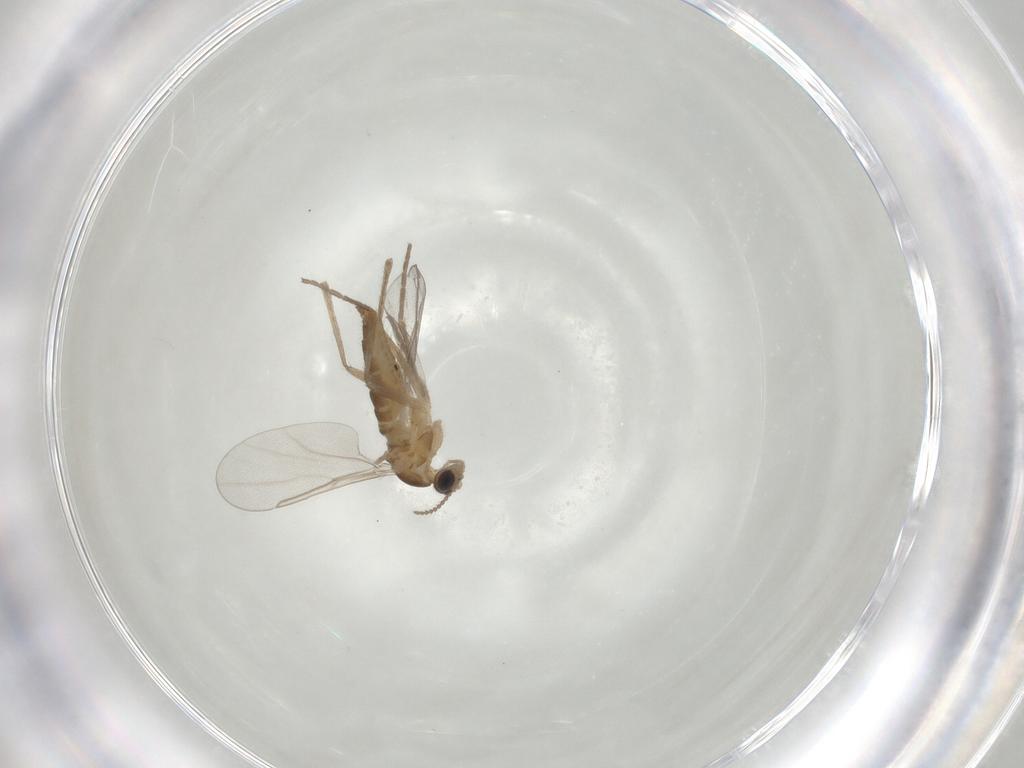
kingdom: Animalia
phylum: Arthropoda
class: Insecta
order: Diptera
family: Cecidomyiidae
